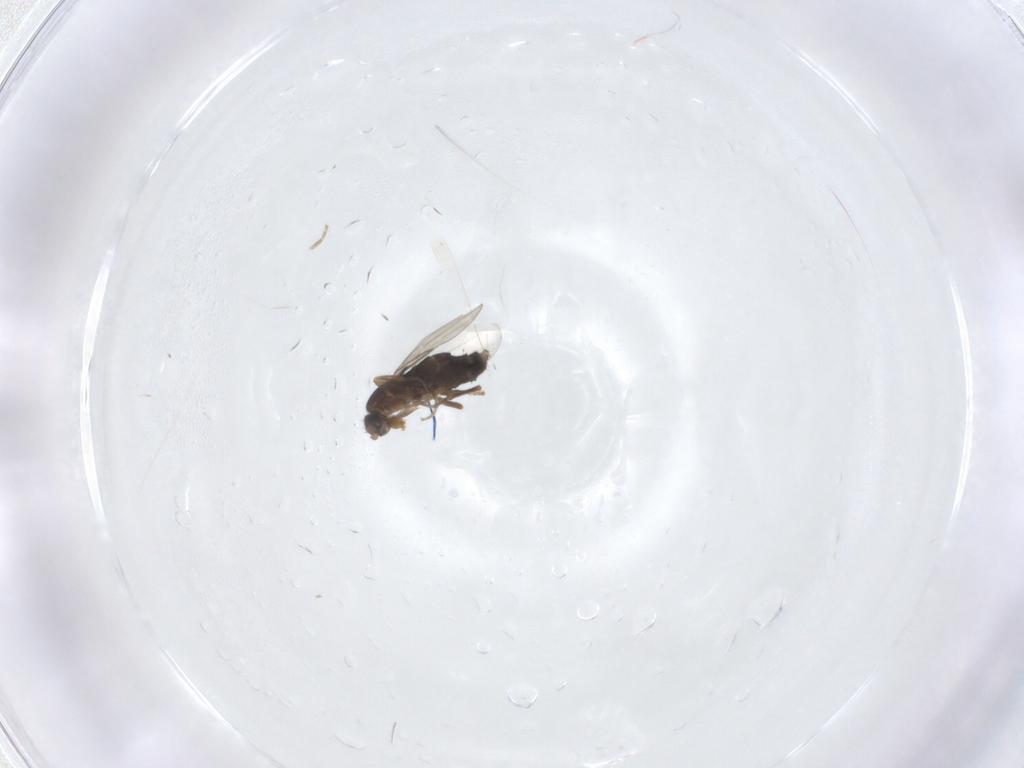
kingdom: Animalia
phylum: Arthropoda
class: Insecta
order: Diptera
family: Phoridae
